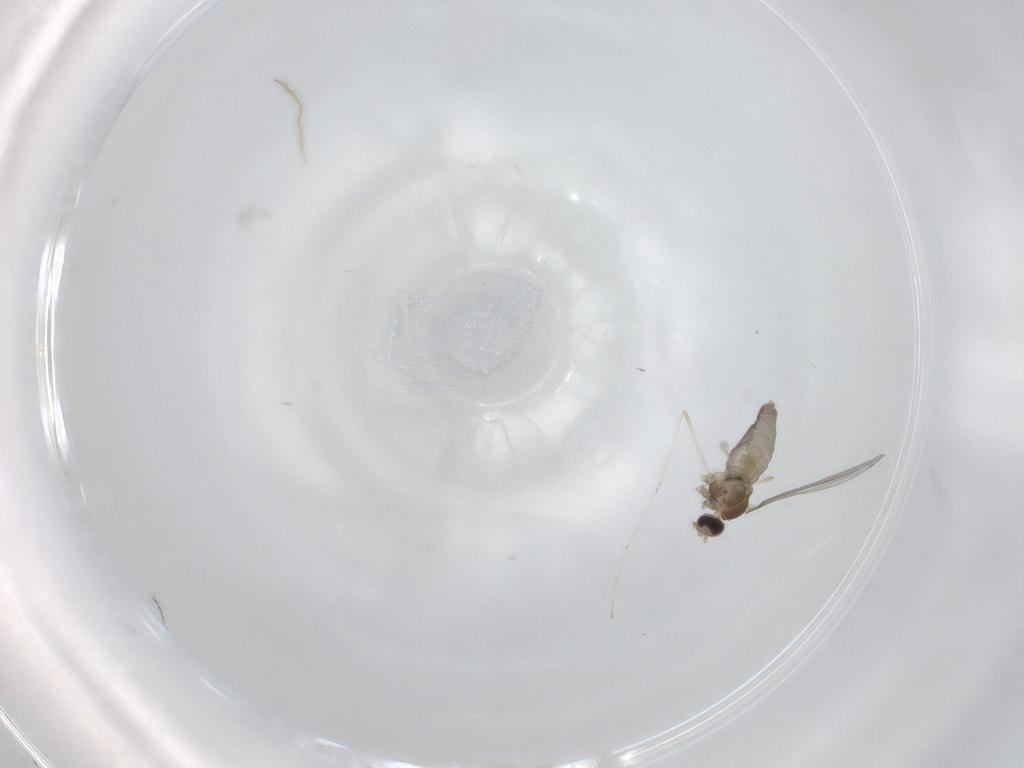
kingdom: Animalia
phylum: Arthropoda
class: Insecta
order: Diptera
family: Cecidomyiidae
